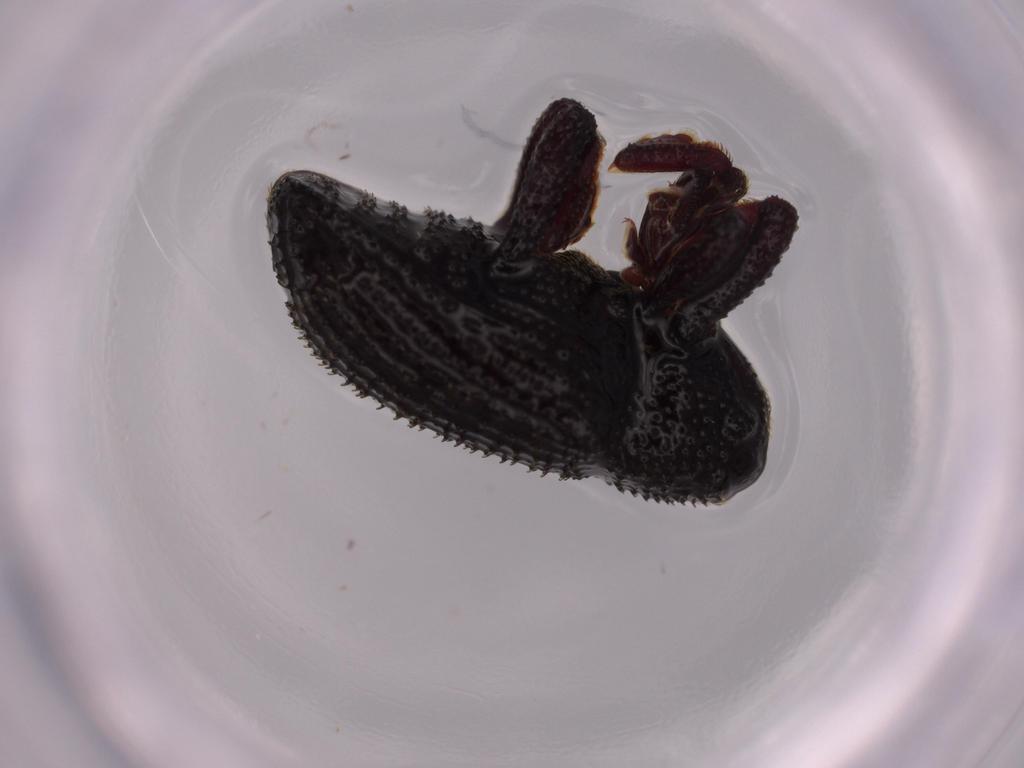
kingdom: Animalia
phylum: Arthropoda
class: Insecta
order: Coleoptera
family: Curculionidae
